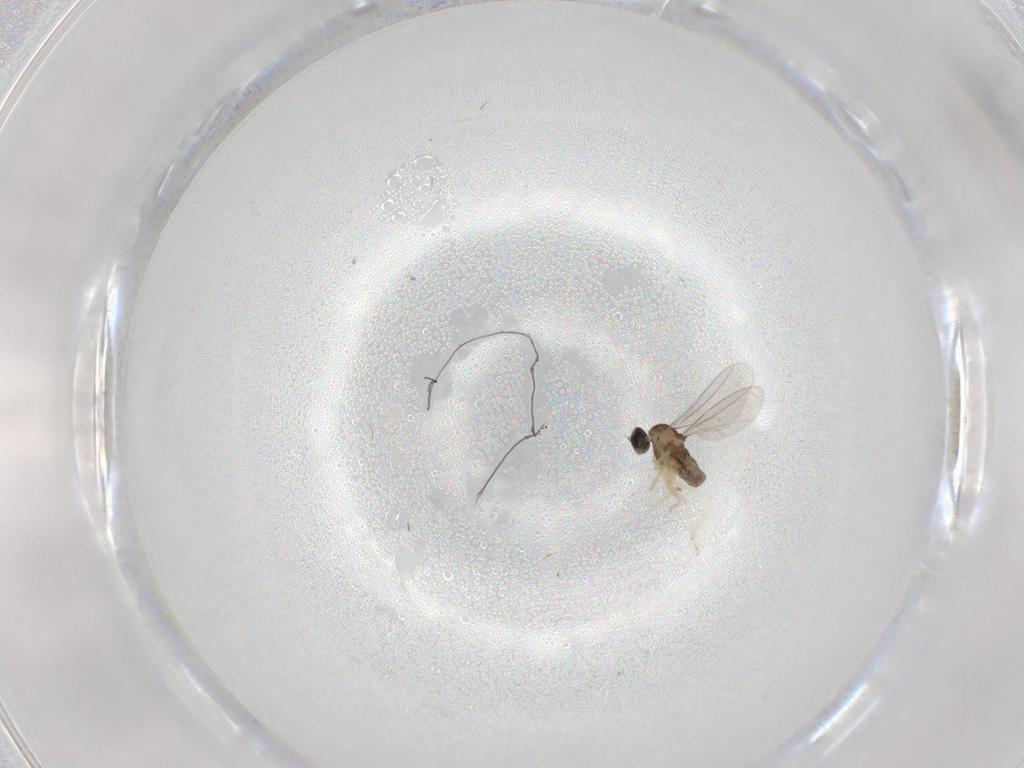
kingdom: Animalia
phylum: Arthropoda
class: Insecta
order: Diptera
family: Cecidomyiidae
